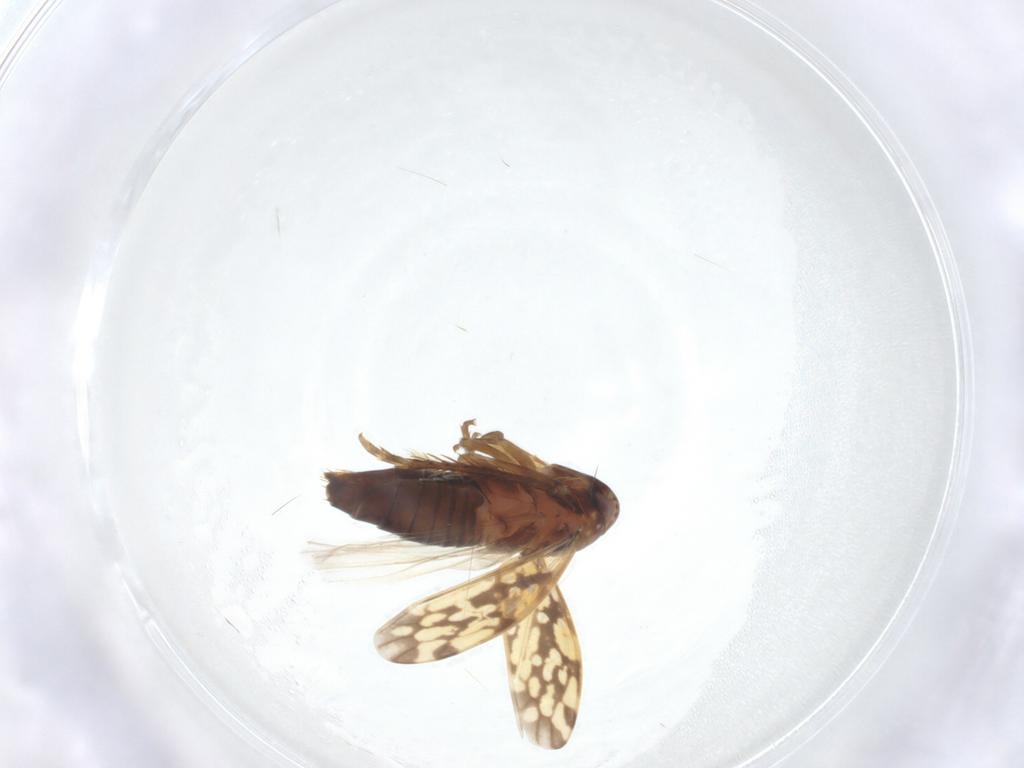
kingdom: Animalia
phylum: Arthropoda
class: Insecta
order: Hemiptera
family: Cicadellidae
